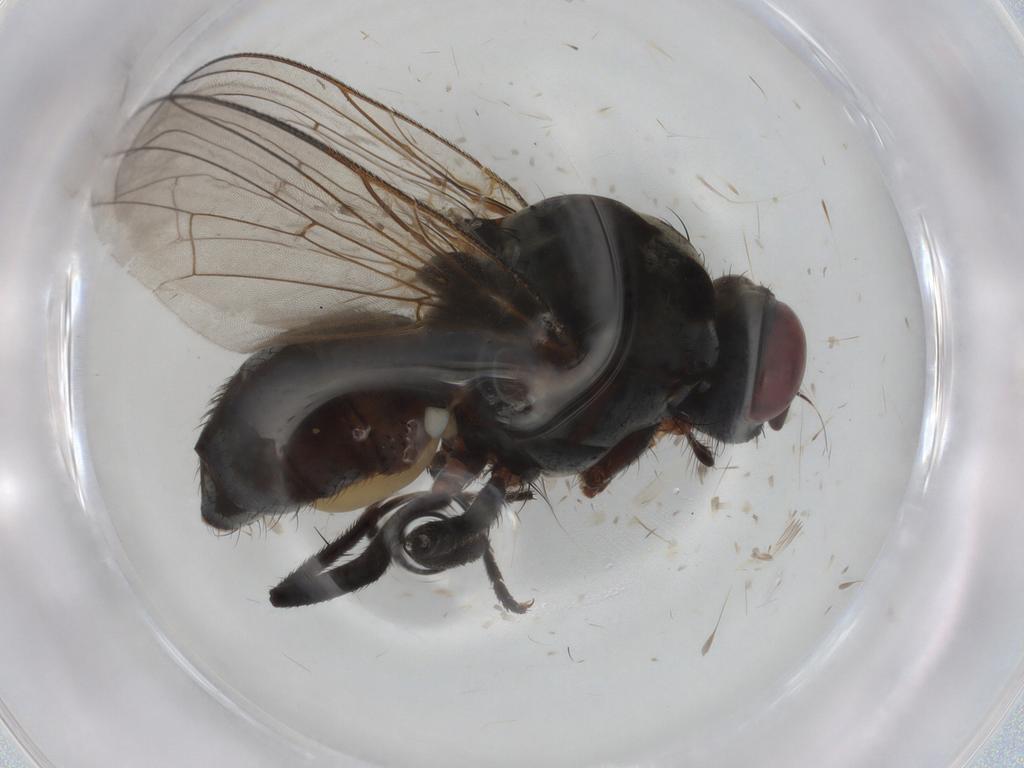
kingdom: Animalia
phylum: Arthropoda
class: Insecta
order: Diptera
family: Anthomyiidae
